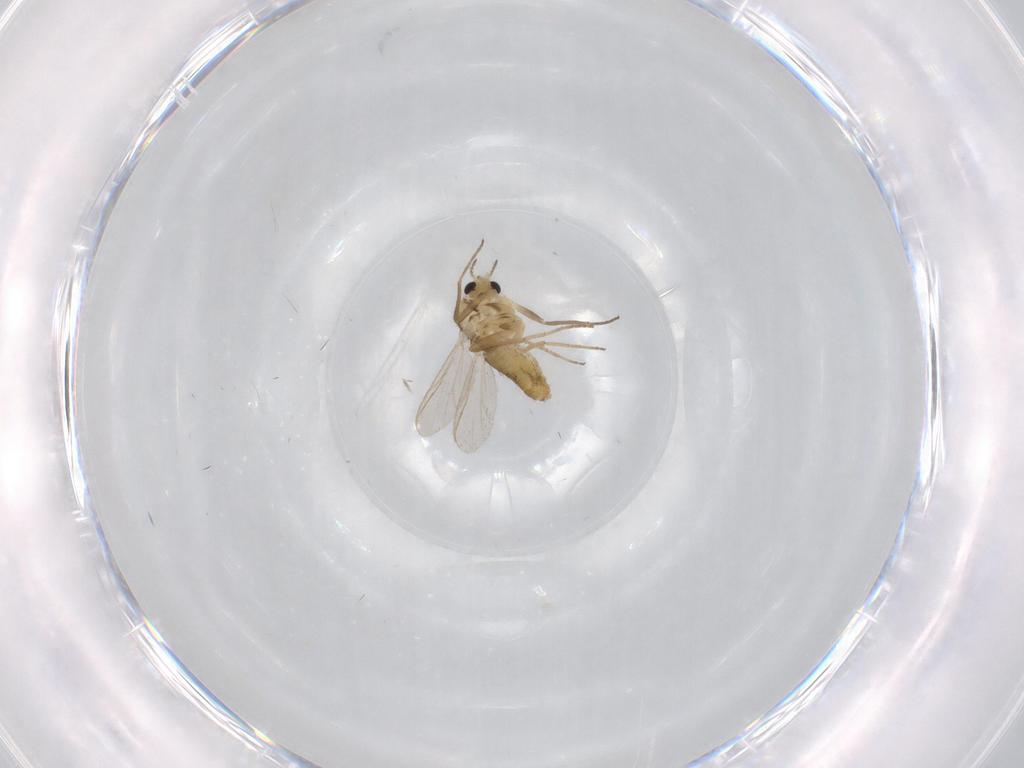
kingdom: Animalia
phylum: Arthropoda
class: Insecta
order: Diptera
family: Chironomidae
